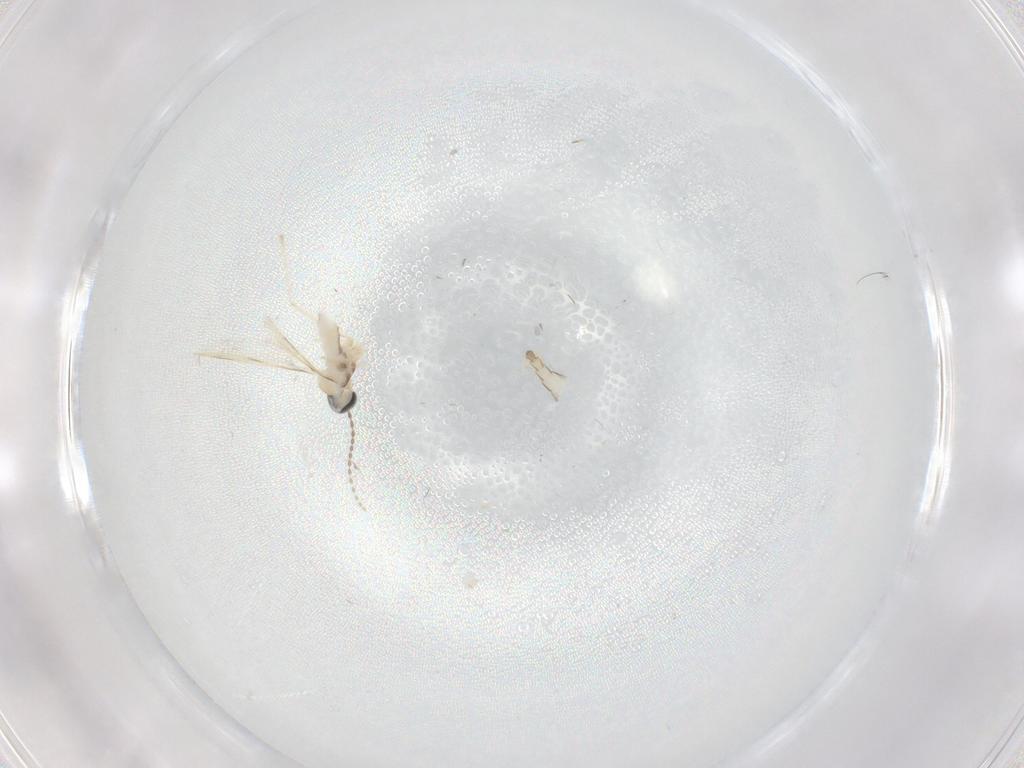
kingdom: Animalia
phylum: Arthropoda
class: Insecta
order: Diptera
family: Cecidomyiidae
